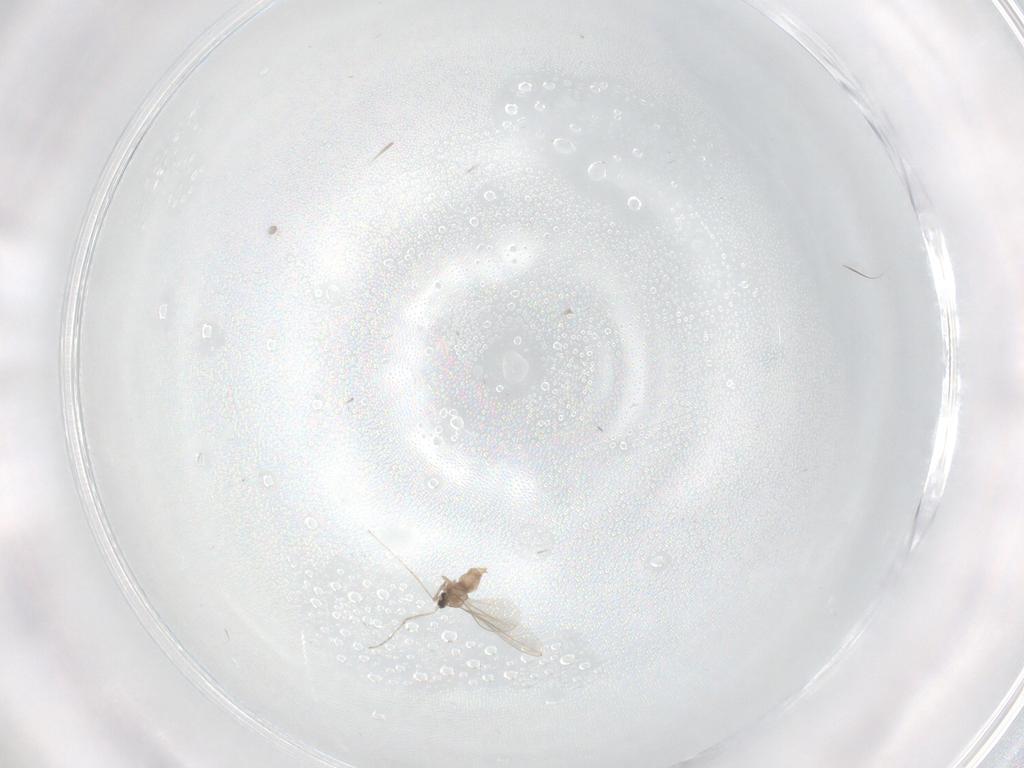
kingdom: Animalia
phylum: Arthropoda
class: Insecta
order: Diptera
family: Cecidomyiidae
